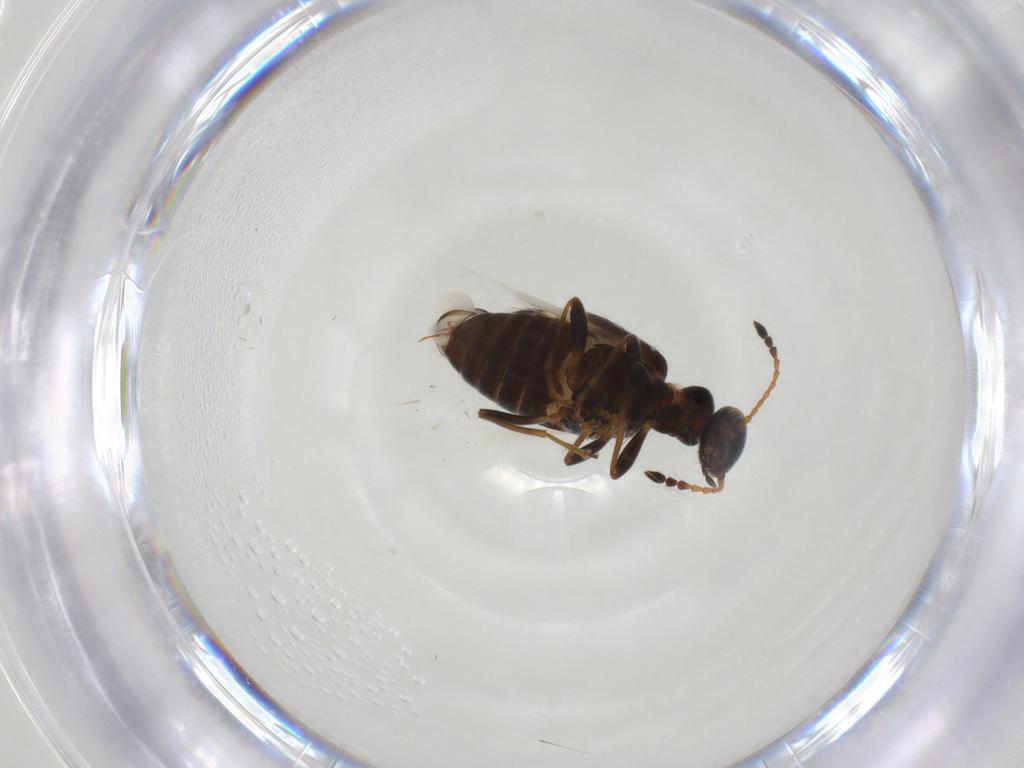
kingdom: Animalia
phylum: Arthropoda
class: Insecta
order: Coleoptera
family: Anthicidae
